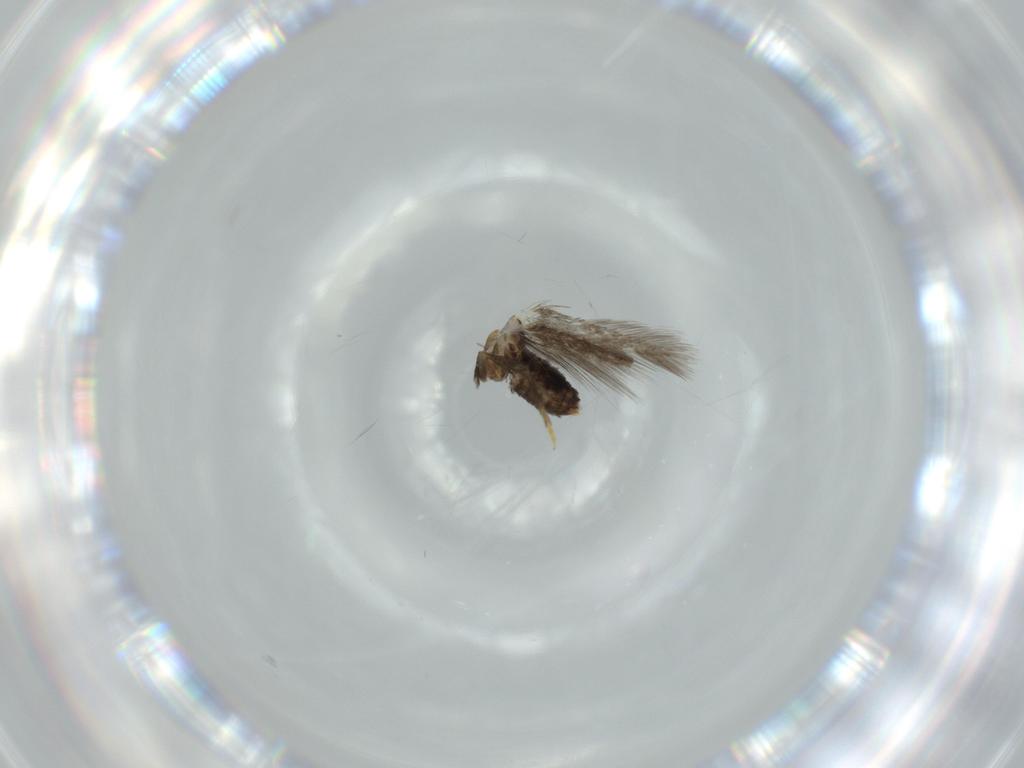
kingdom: Animalia
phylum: Arthropoda
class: Insecta
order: Lepidoptera
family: Nepticulidae
